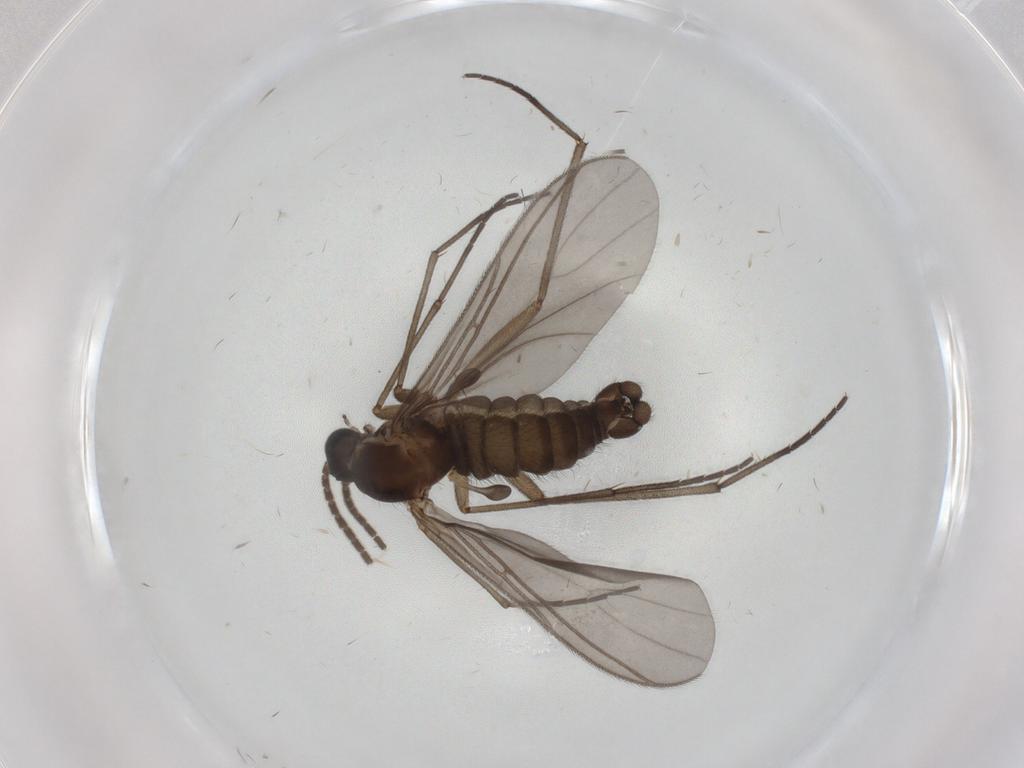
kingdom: Animalia
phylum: Arthropoda
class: Insecta
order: Diptera
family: Sciaridae
